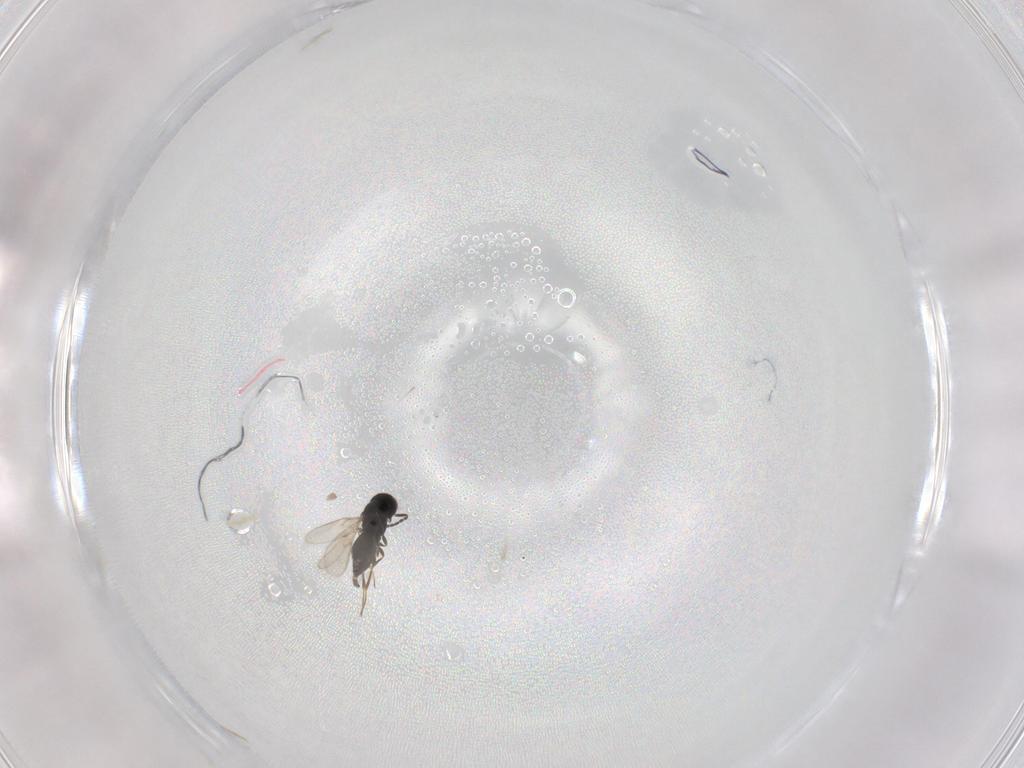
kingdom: Animalia
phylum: Arthropoda
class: Insecta
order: Hymenoptera
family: Scelionidae
